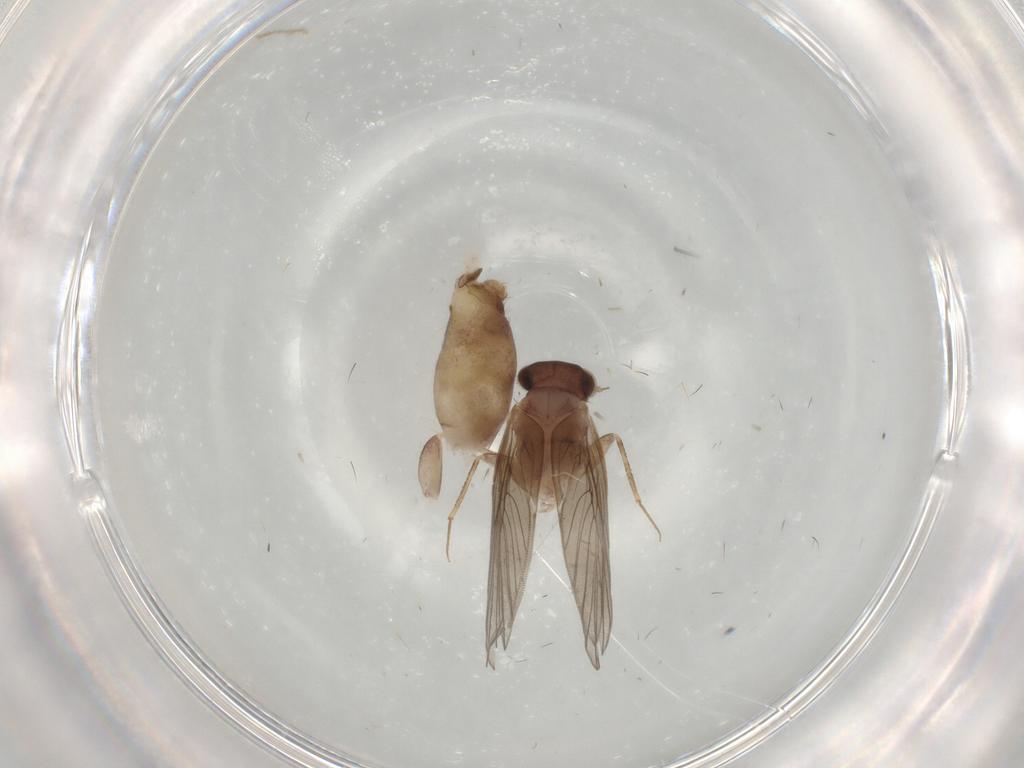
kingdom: Animalia
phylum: Arthropoda
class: Insecta
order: Psocodea
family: Lepidopsocidae
